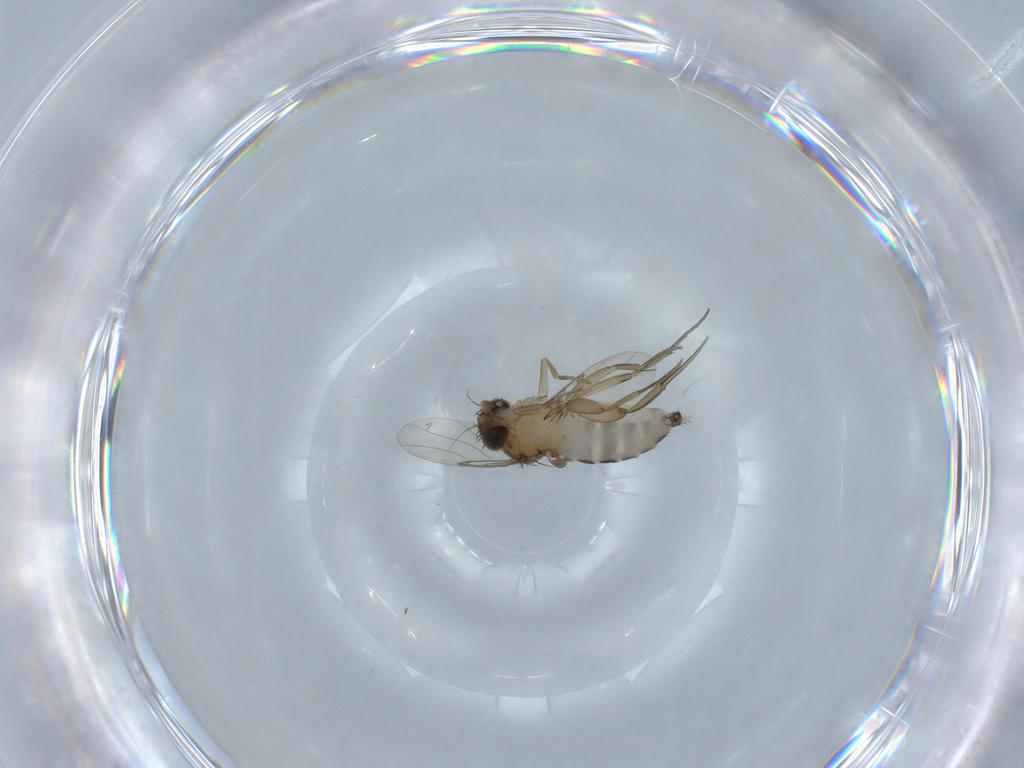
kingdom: Animalia
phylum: Arthropoda
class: Insecta
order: Diptera
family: Phoridae
